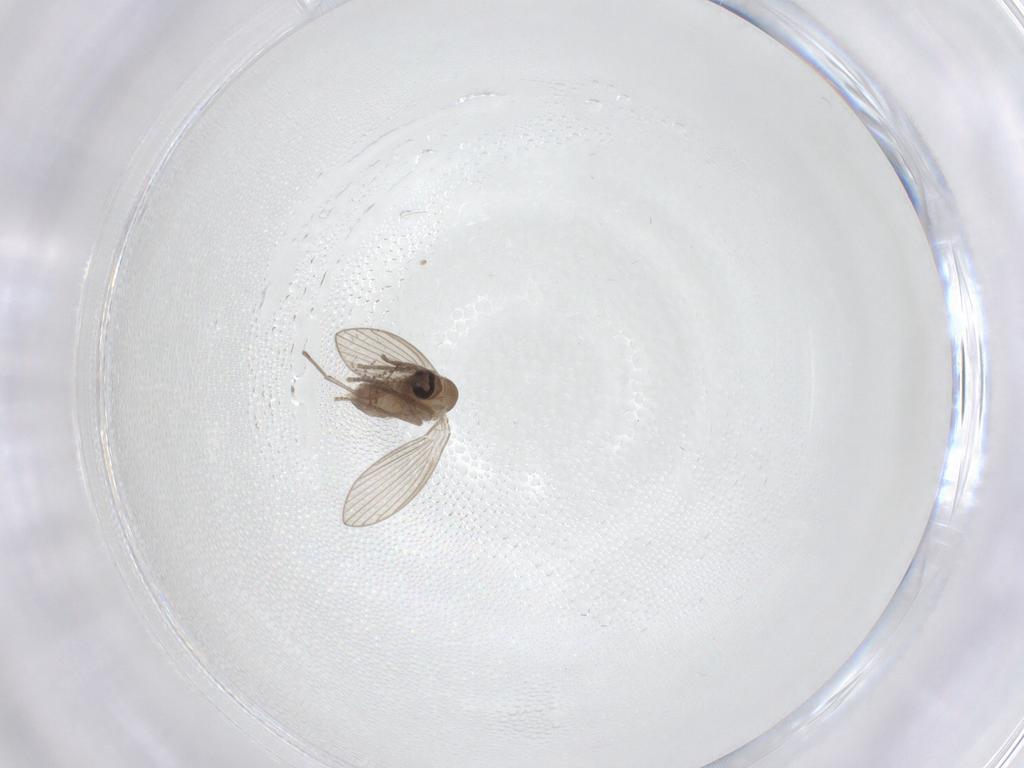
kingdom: Animalia
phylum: Arthropoda
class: Insecta
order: Diptera
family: Psychodidae
